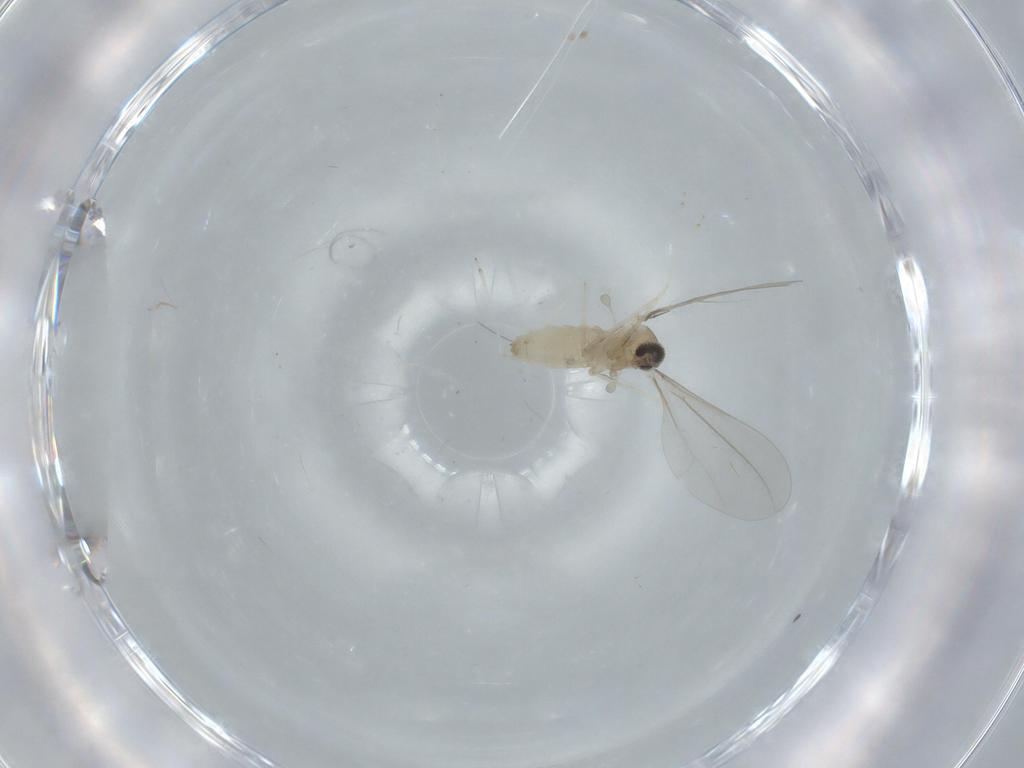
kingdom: Animalia
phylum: Arthropoda
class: Insecta
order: Diptera
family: Cecidomyiidae
